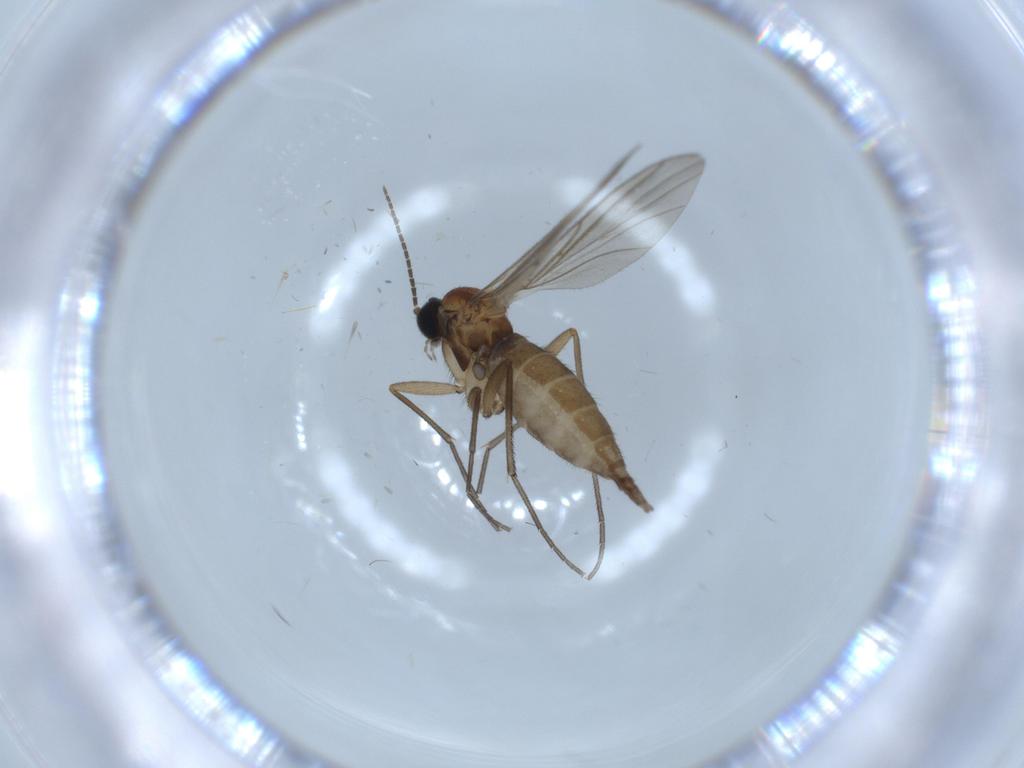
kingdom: Animalia
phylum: Arthropoda
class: Insecta
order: Diptera
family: Sciaridae
